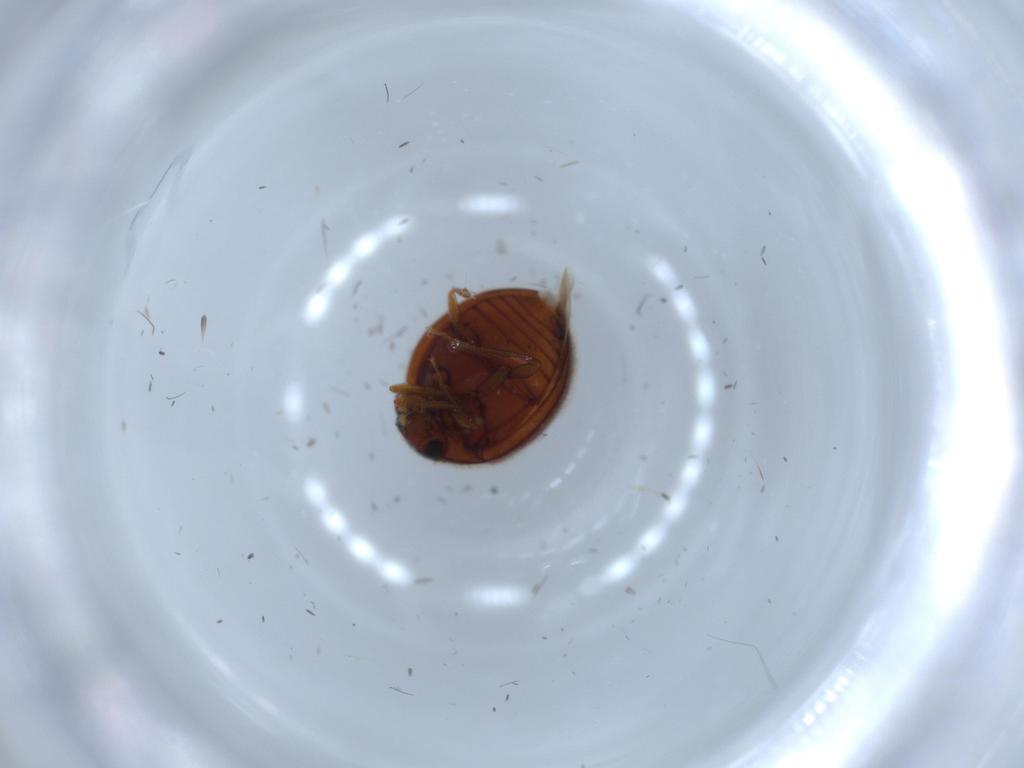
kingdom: Animalia
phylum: Arthropoda
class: Insecta
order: Coleoptera
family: Anamorphidae
